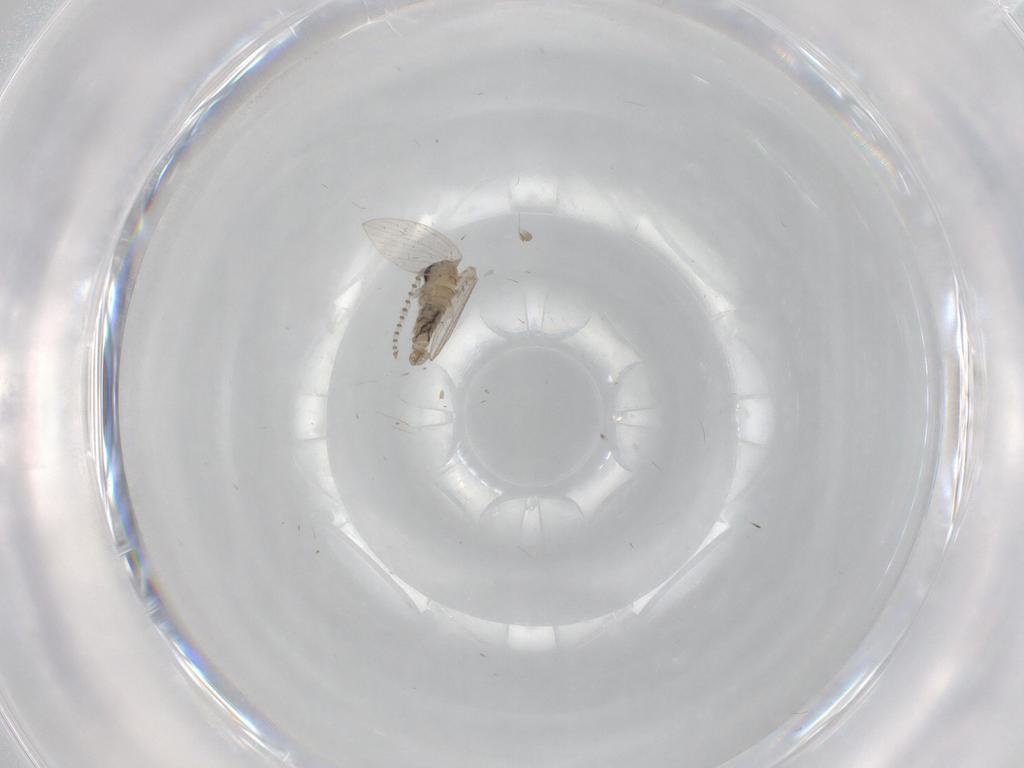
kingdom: Animalia
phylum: Arthropoda
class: Insecta
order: Diptera
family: Psychodidae
